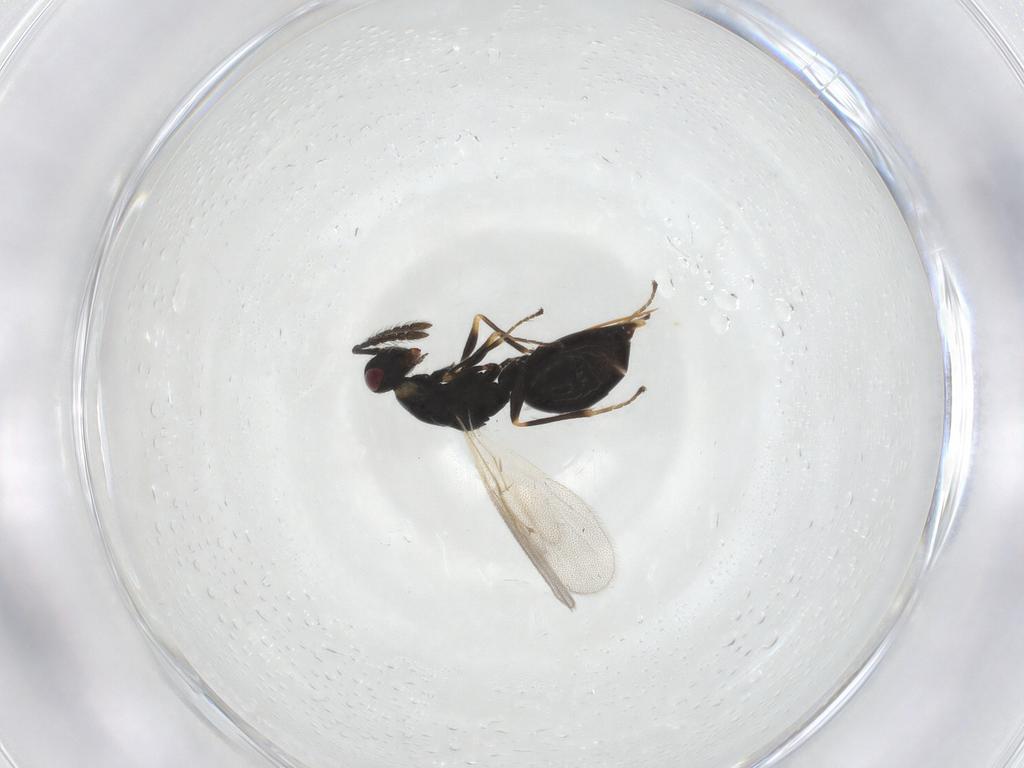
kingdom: Animalia
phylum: Arthropoda
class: Insecta
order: Hymenoptera
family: Eurytomidae
